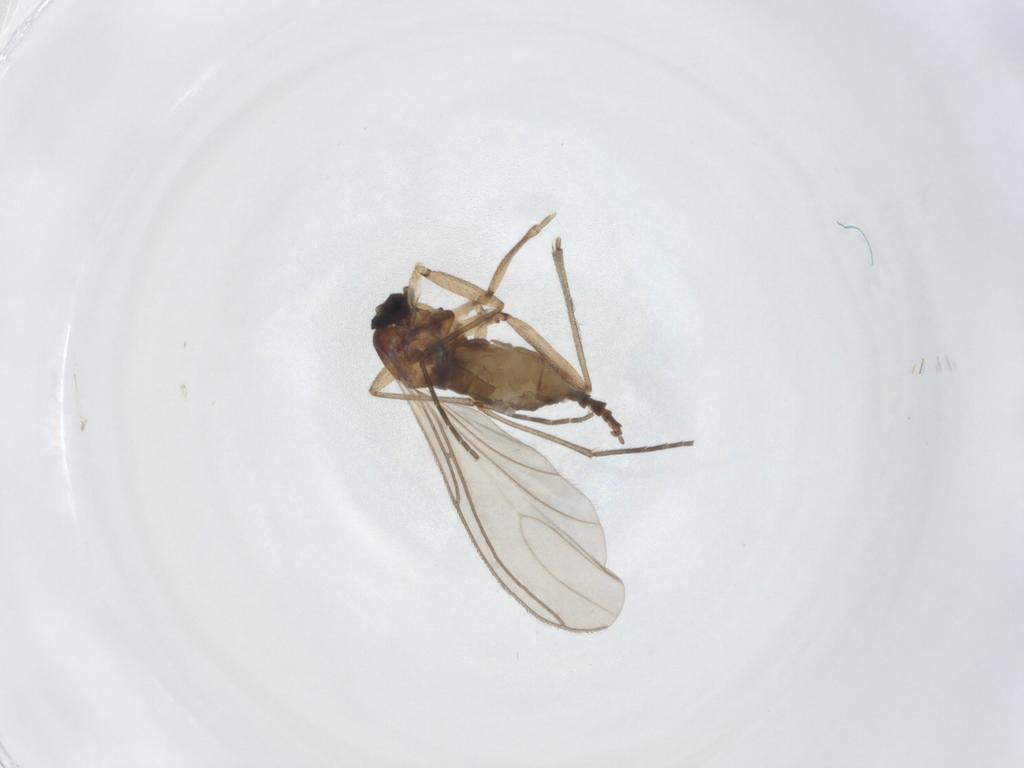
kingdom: Animalia
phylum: Arthropoda
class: Insecta
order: Diptera
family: Sciaridae
